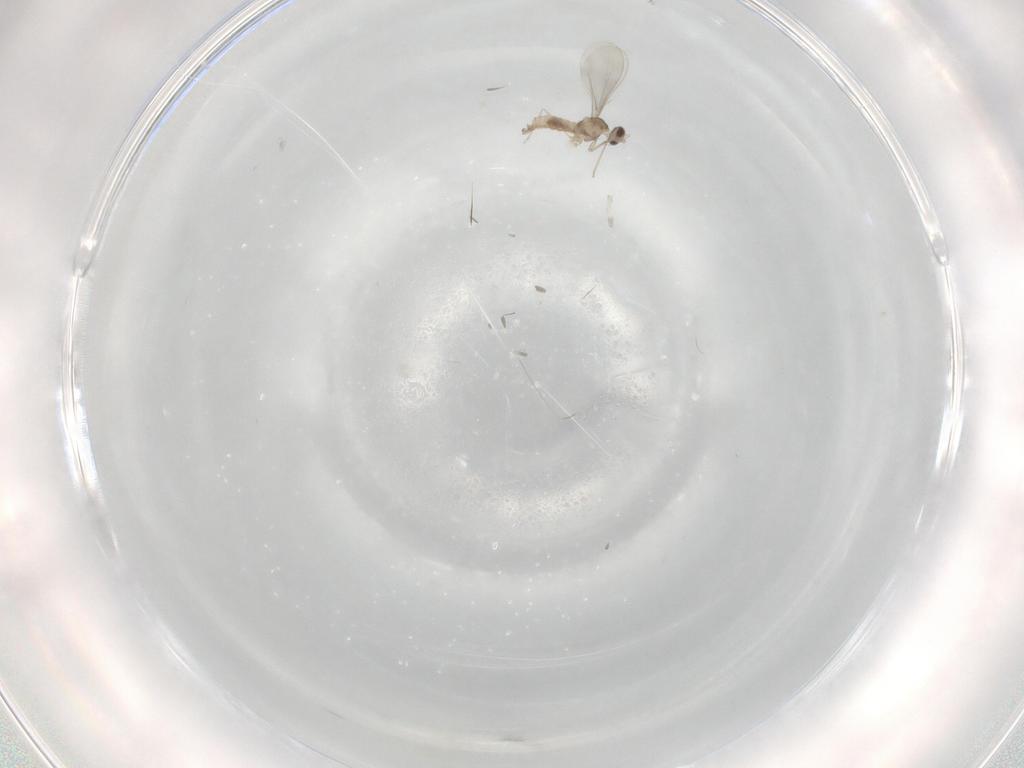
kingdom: Animalia
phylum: Arthropoda
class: Insecta
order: Diptera
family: Cecidomyiidae
